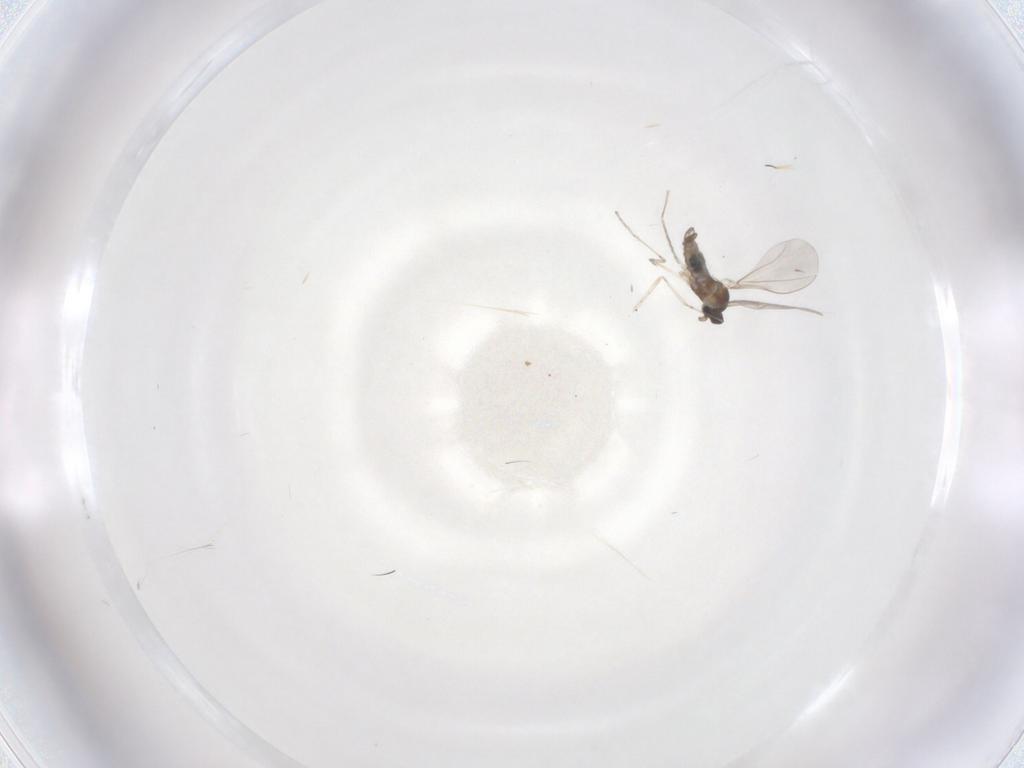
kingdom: Animalia
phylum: Arthropoda
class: Insecta
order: Diptera
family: Cecidomyiidae
